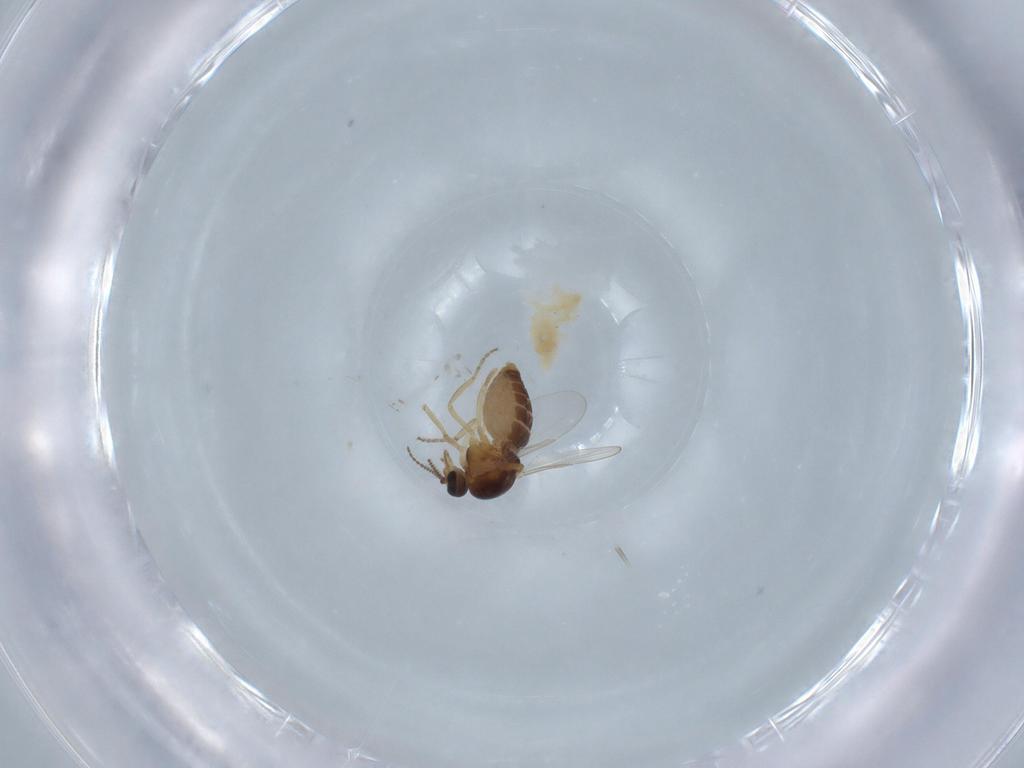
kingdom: Animalia
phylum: Arthropoda
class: Insecta
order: Diptera
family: Ceratopogonidae
